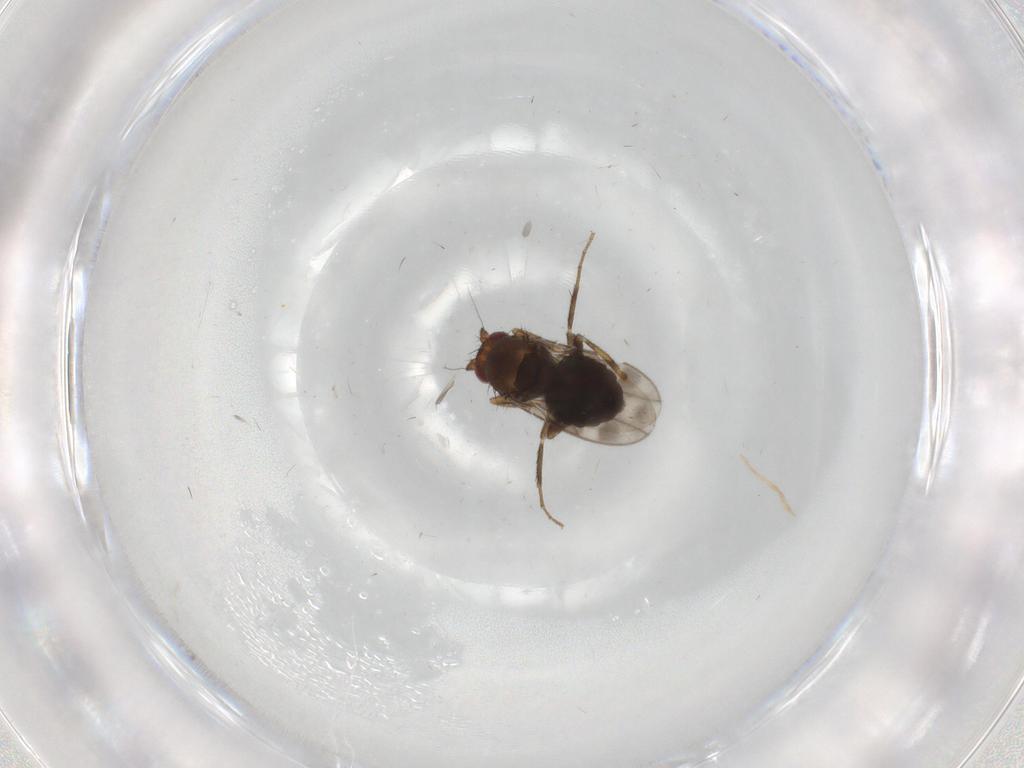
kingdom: Animalia
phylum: Arthropoda
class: Insecta
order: Diptera
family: Sphaeroceridae
